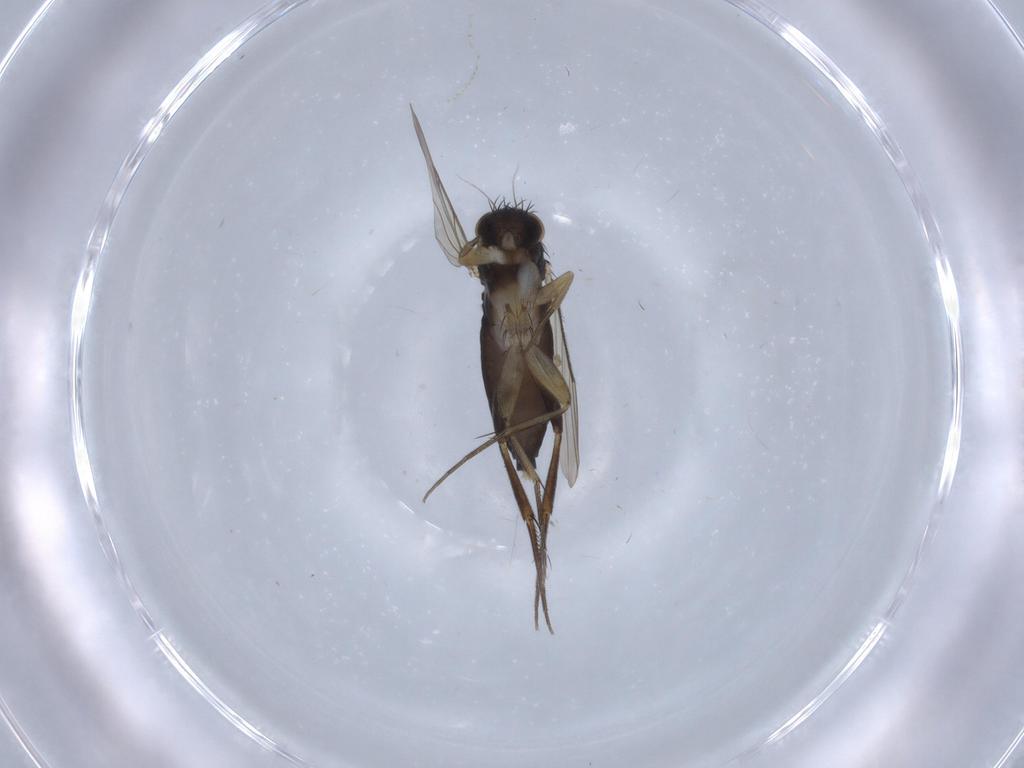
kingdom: Animalia
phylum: Arthropoda
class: Insecta
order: Diptera
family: Phoridae
